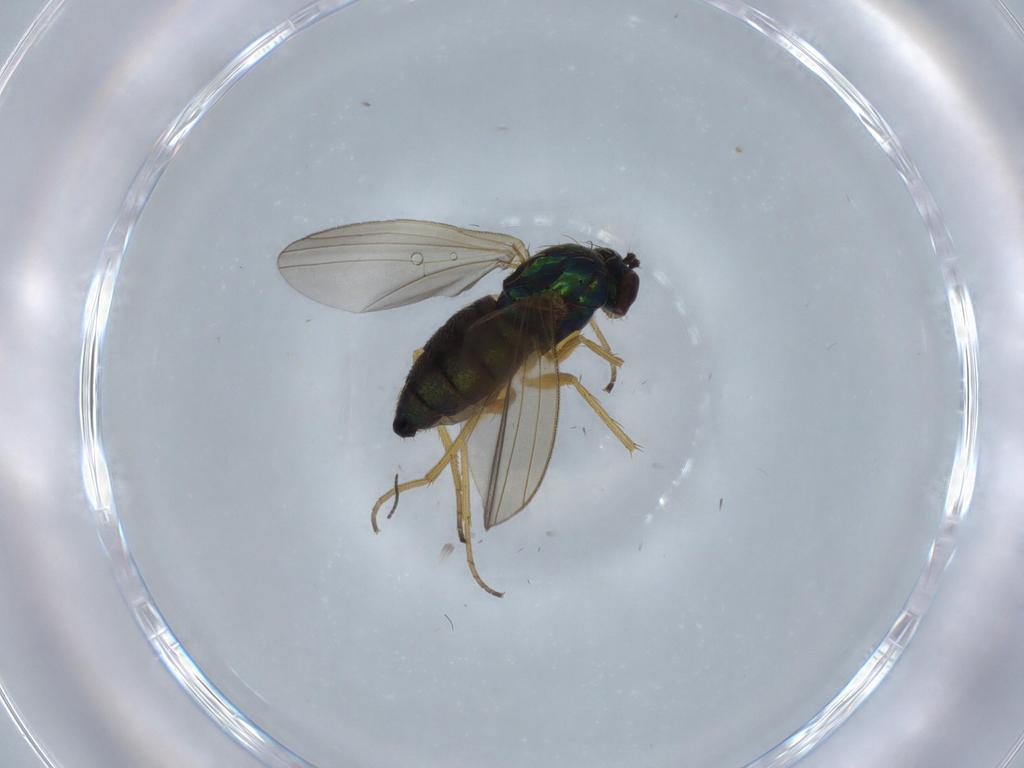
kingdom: Animalia
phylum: Arthropoda
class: Insecta
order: Diptera
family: Dolichopodidae
